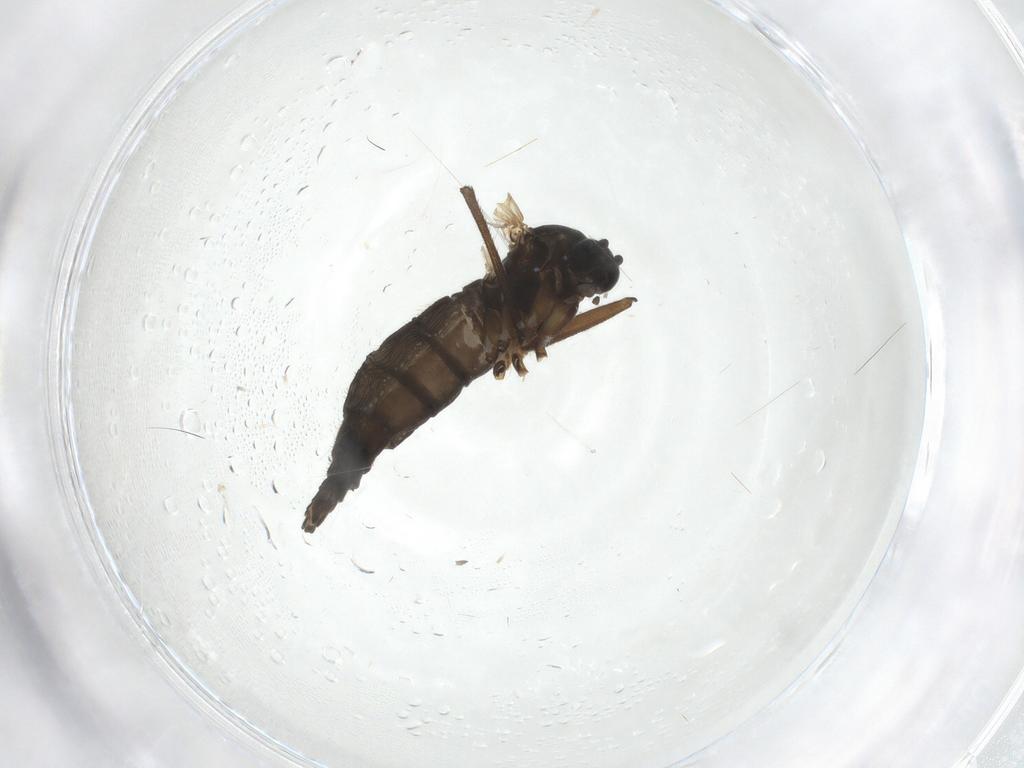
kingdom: Animalia
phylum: Arthropoda
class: Insecta
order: Diptera
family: Sciaridae
